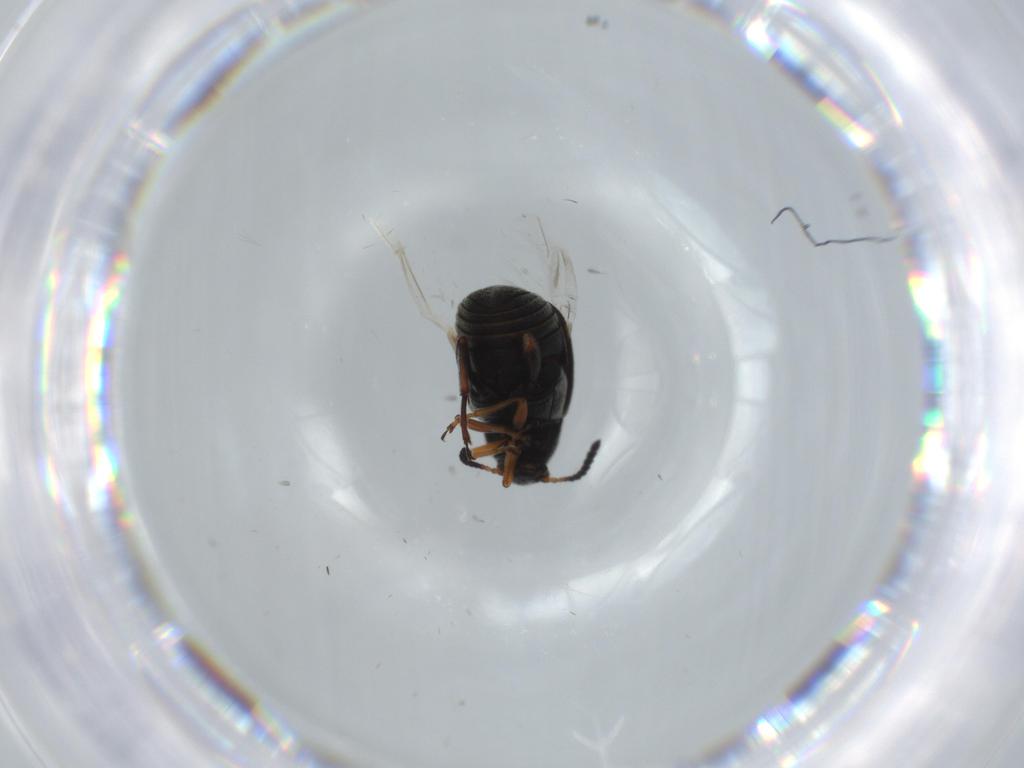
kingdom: Animalia
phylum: Arthropoda
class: Insecta
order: Coleoptera
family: Chrysomelidae
